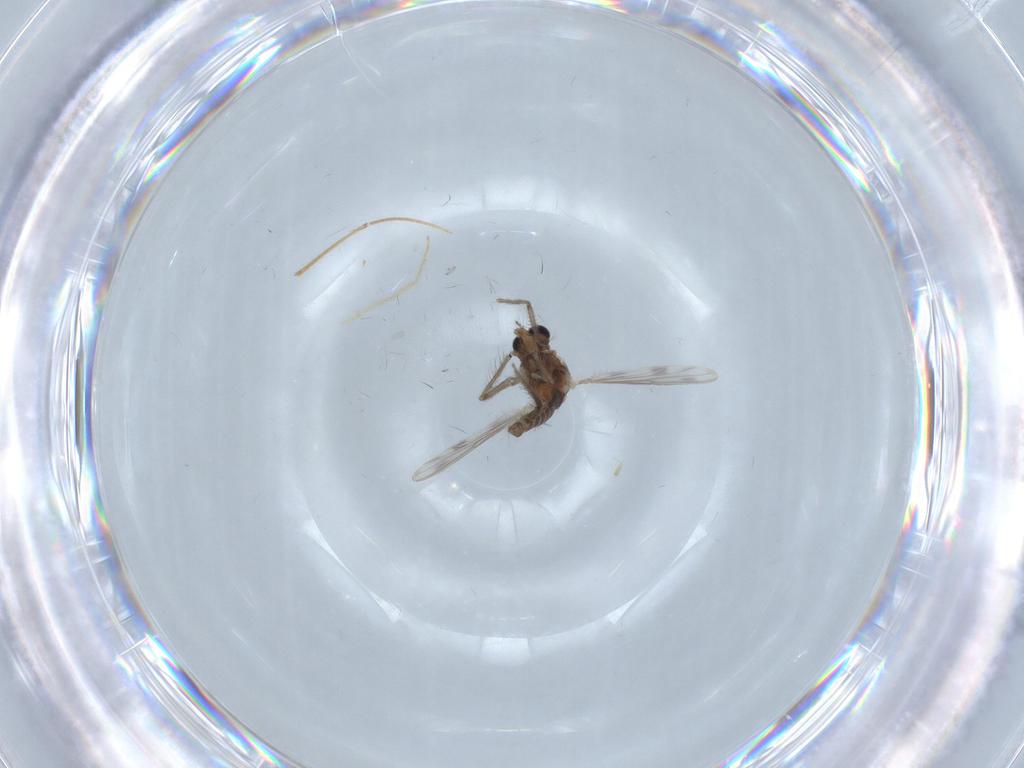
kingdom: Animalia
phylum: Arthropoda
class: Insecta
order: Diptera
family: Chironomidae
